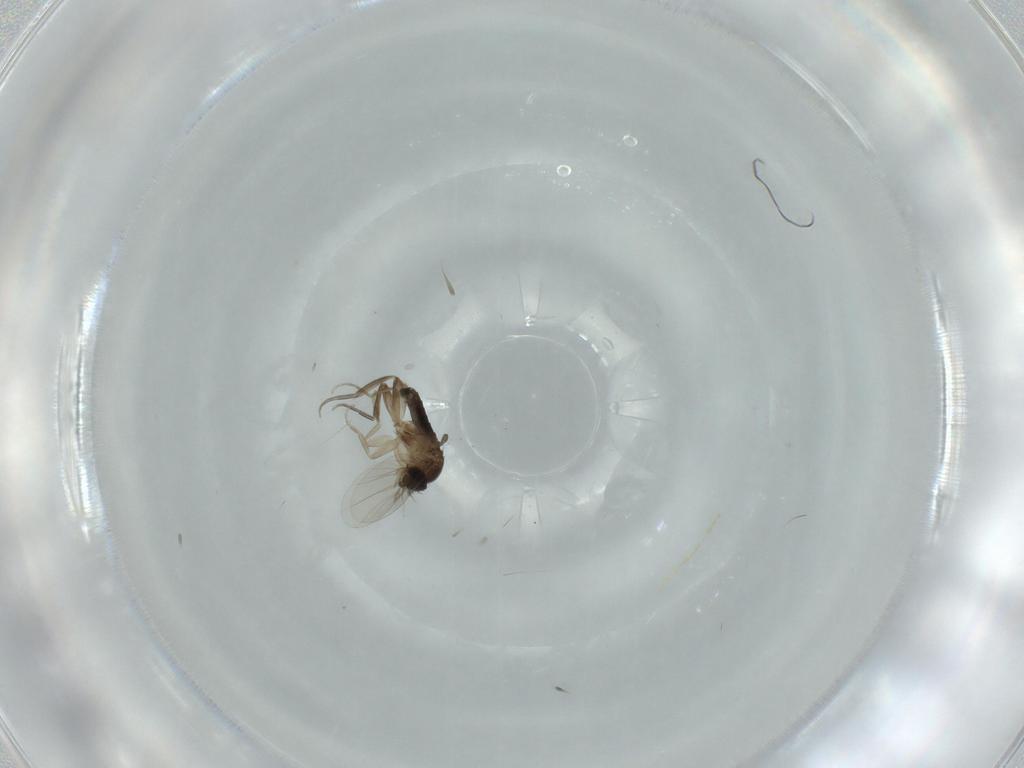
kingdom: Animalia
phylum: Arthropoda
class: Insecta
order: Diptera
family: Phoridae
